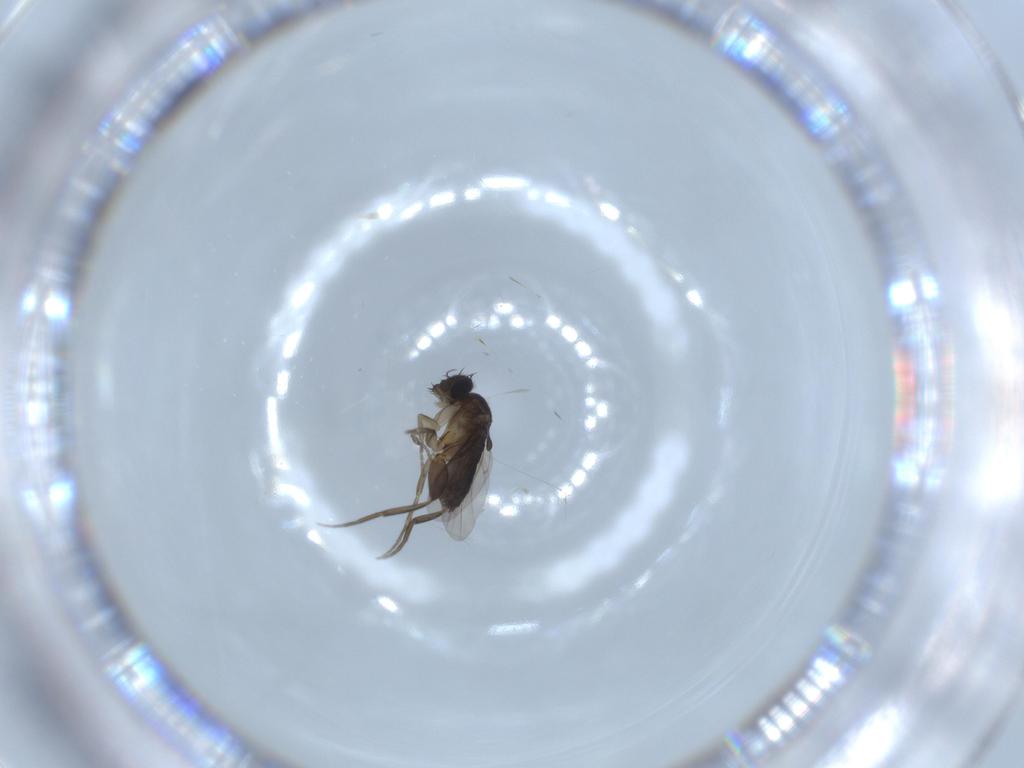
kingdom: Animalia
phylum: Arthropoda
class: Insecta
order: Diptera
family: Phoridae
